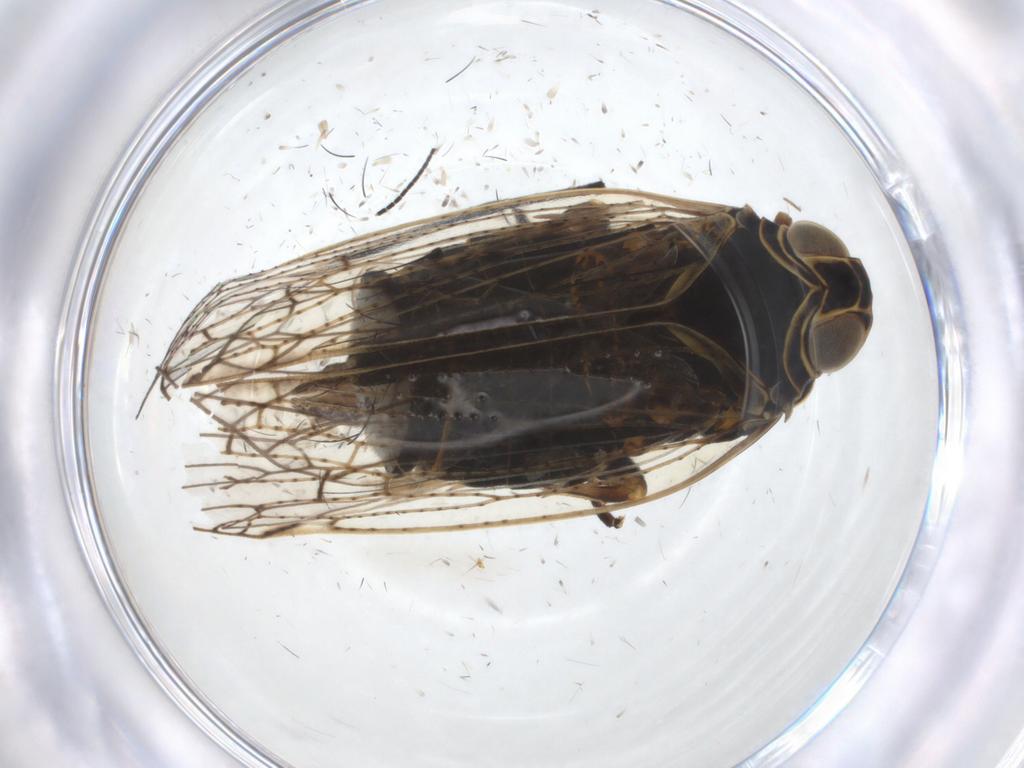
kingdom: Animalia
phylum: Arthropoda
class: Insecta
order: Hemiptera
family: Cixiidae
